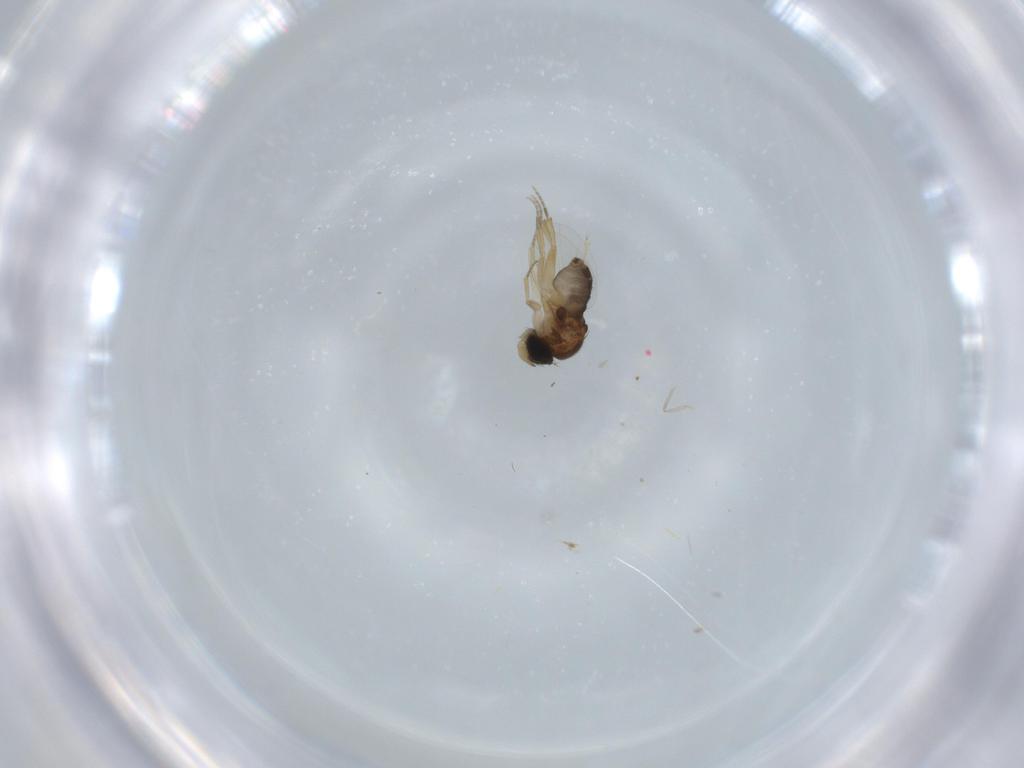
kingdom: Animalia
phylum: Arthropoda
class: Insecta
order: Diptera
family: Phoridae
